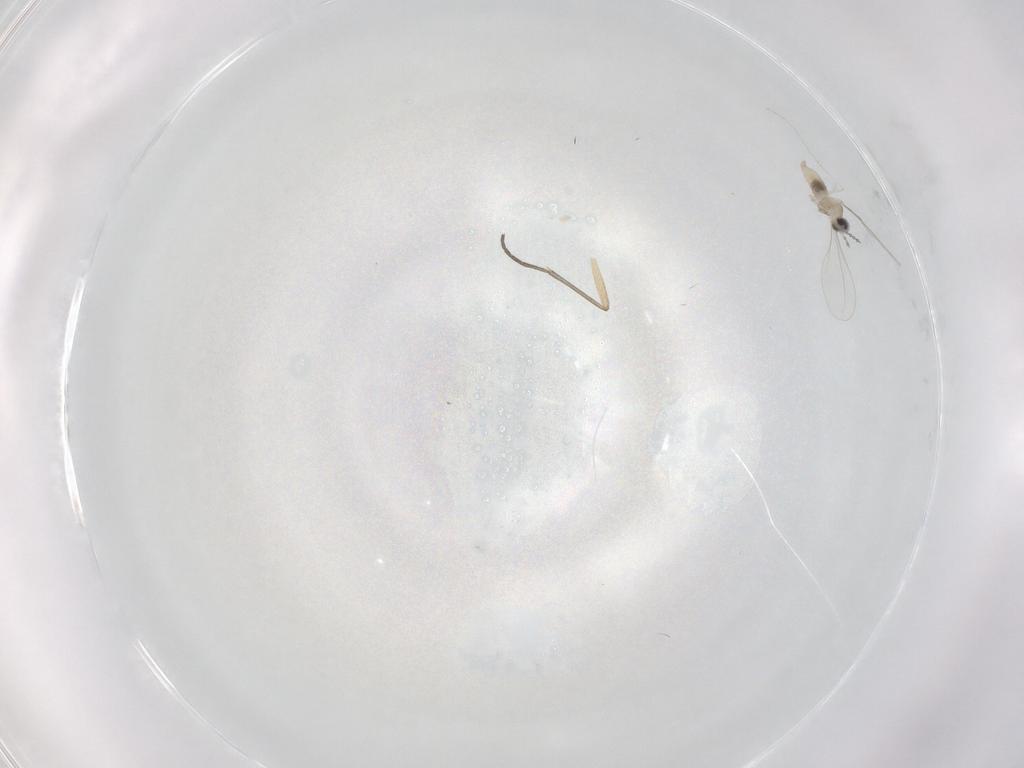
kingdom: Animalia
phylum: Arthropoda
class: Insecta
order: Diptera
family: Cecidomyiidae
